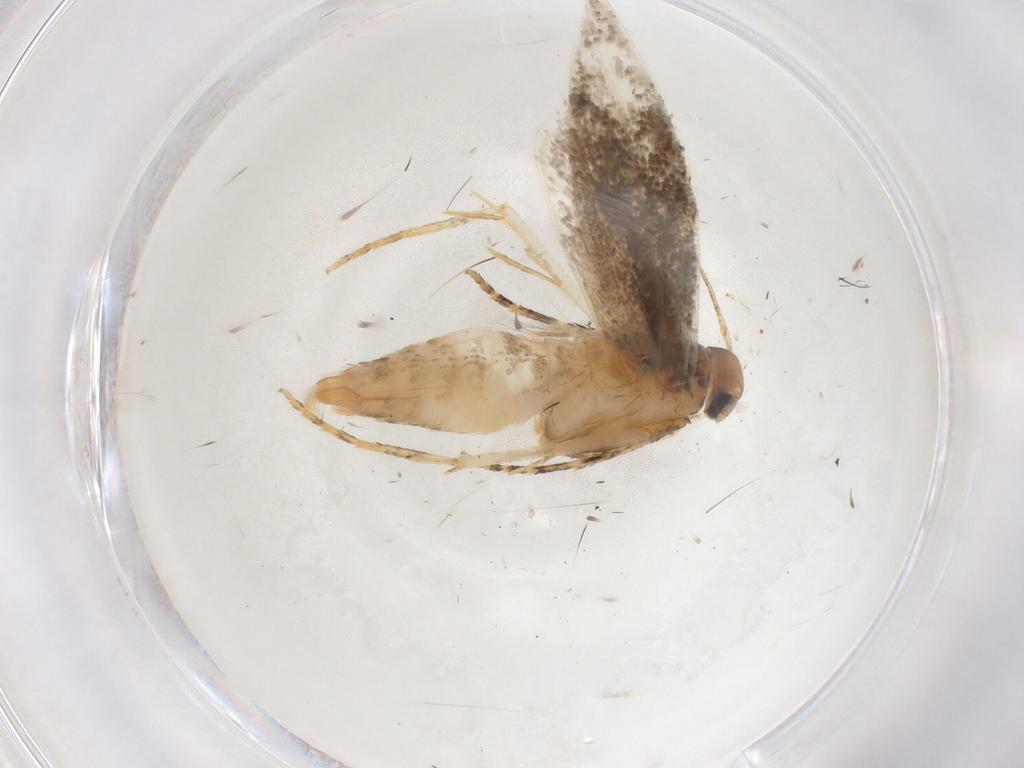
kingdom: Animalia
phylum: Arthropoda
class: Insecta
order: Lepidoptera
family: Gelechiidae
